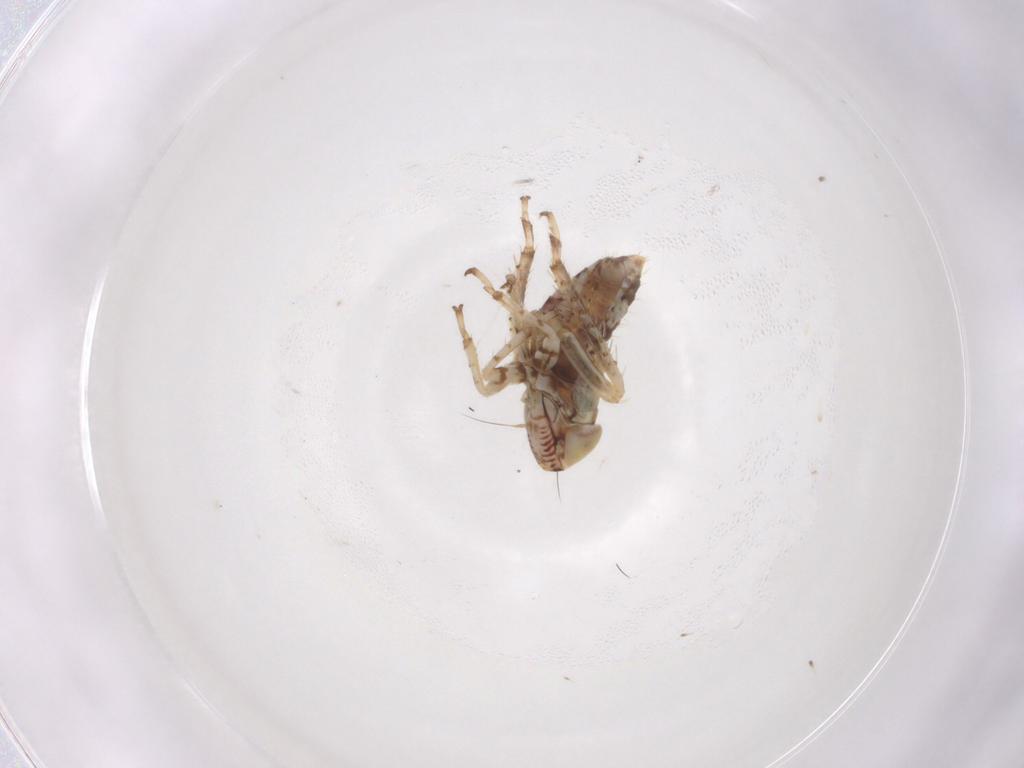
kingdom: Animalia
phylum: Arthropoda
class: Insecta
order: Hemiptera
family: Cicadellidae
